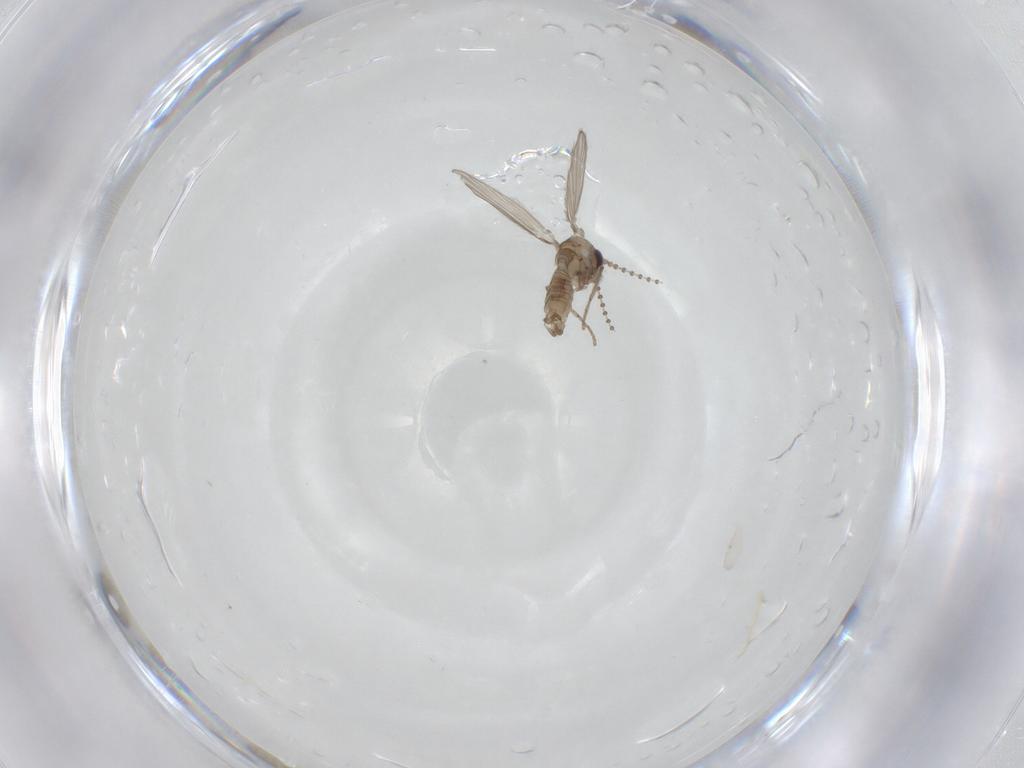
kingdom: Animalia
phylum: Arthropoda
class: Insecta
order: Diptera
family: Psychodidae
